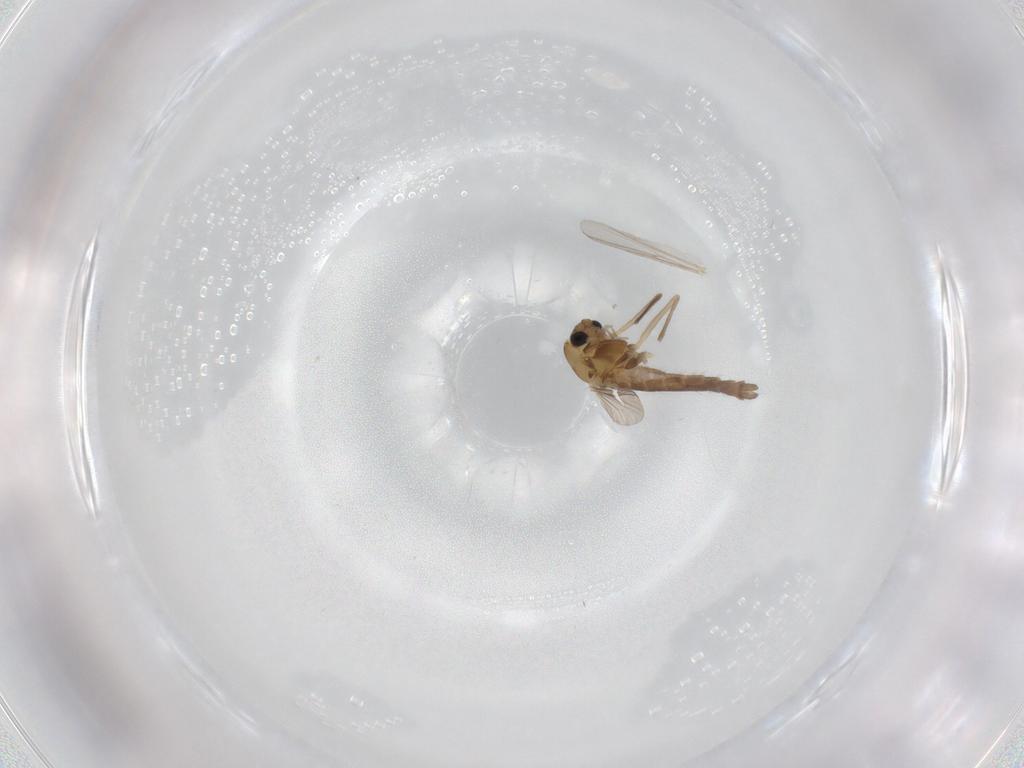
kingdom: Animalia
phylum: Arthropoda
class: Insecta
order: Diptera
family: Chironomidae
